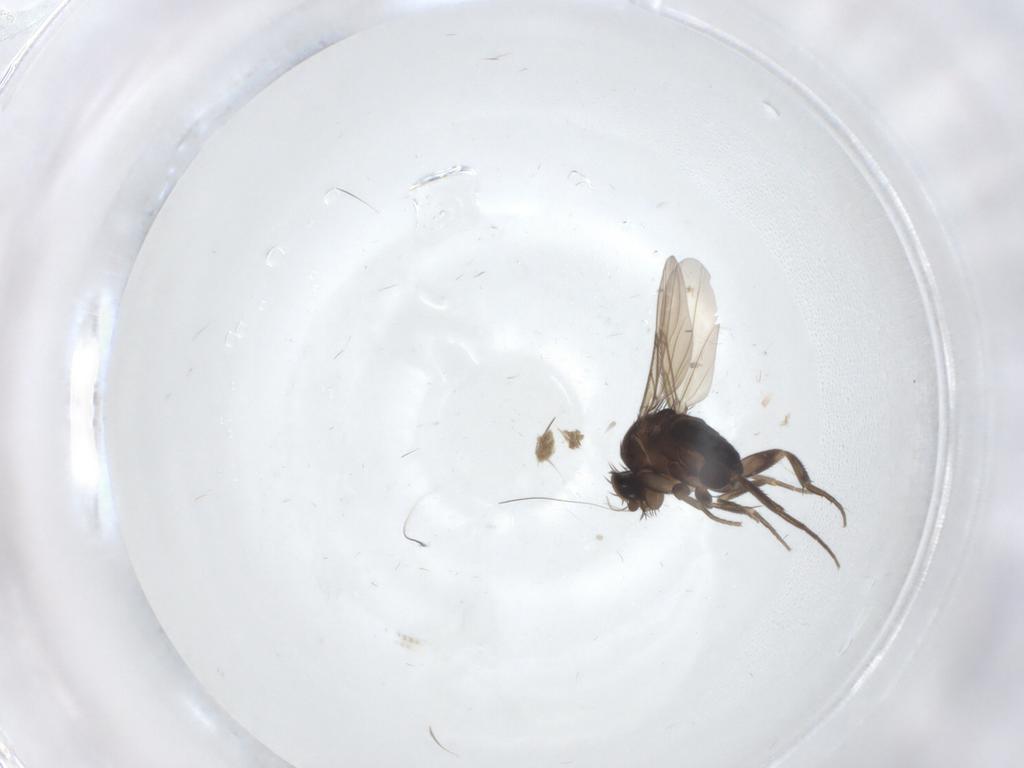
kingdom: Animalia
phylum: Arthropoda
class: Insecta
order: Diptera
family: Phoridae
